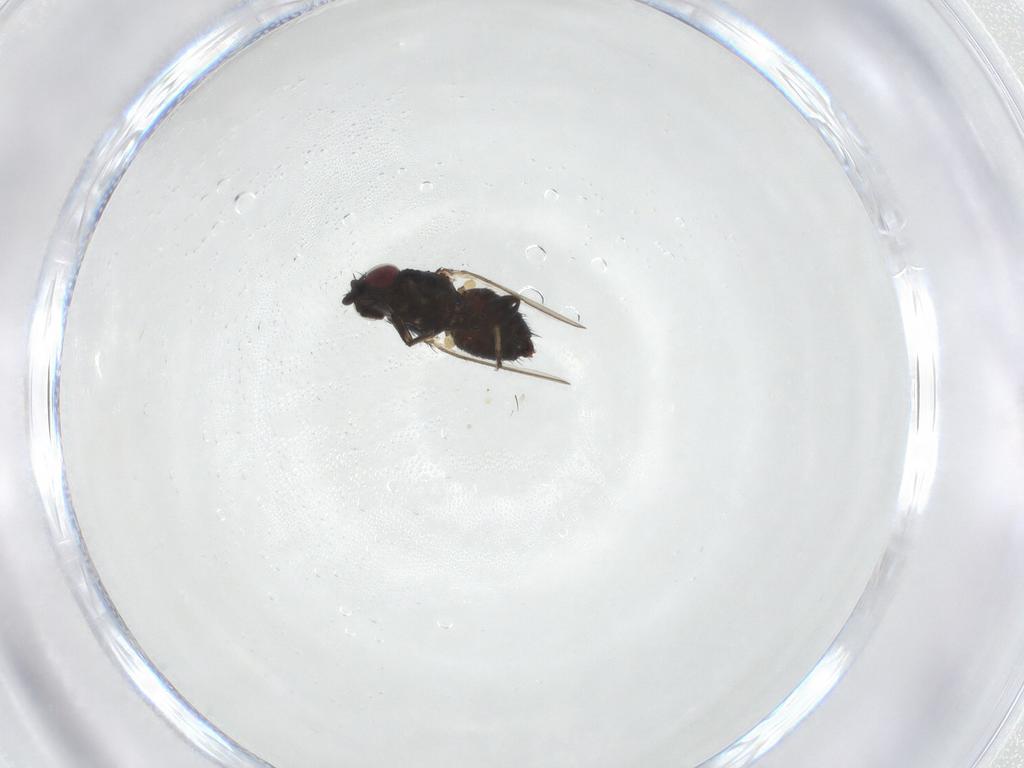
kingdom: Animalia
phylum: Arthropoda
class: Insecta
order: Diptera
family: Milichiidae
